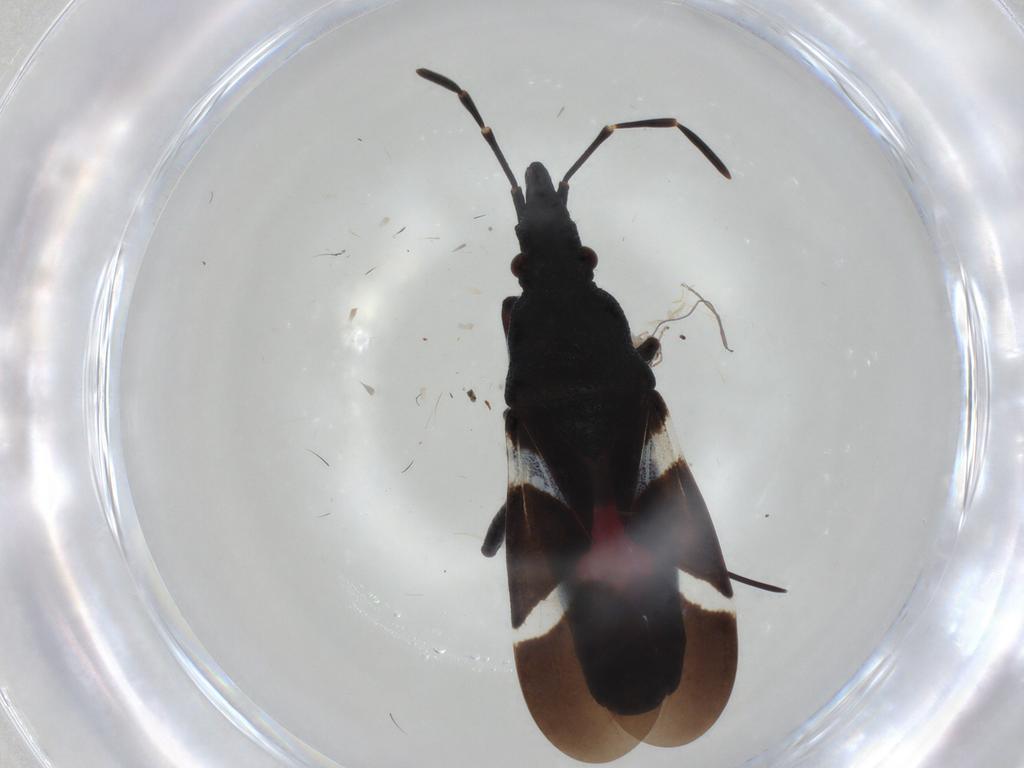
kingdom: Animalia
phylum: Arthropoda
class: Insecta
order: Hemiptera
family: Oxycarenidae
